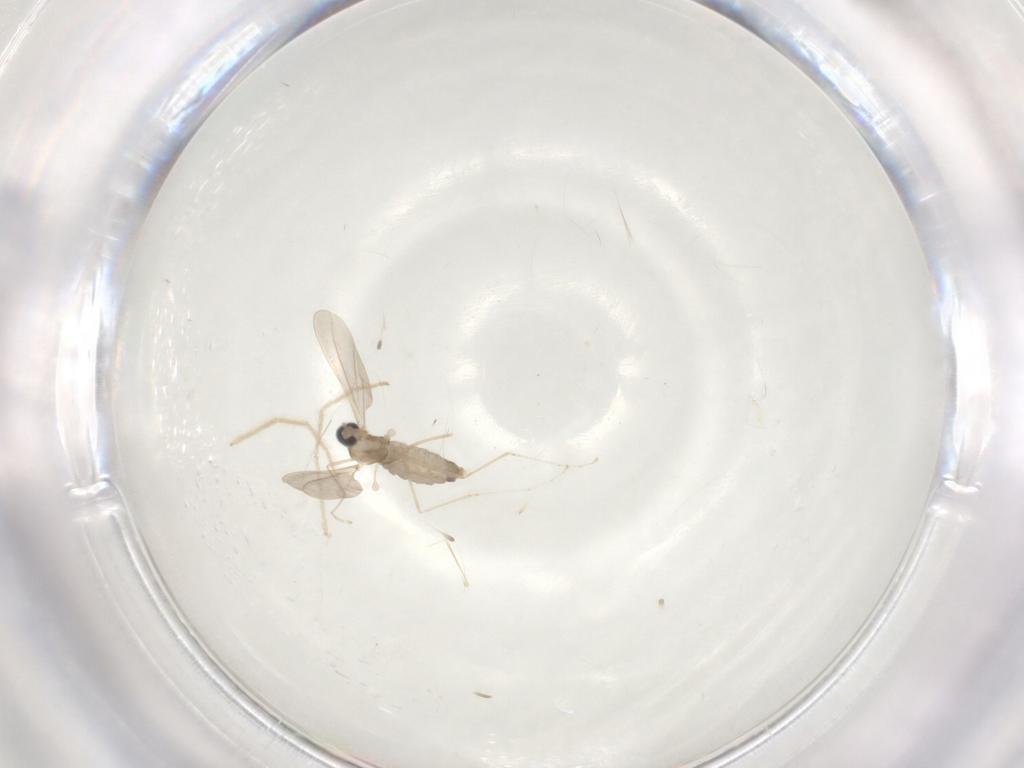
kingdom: Animalia
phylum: Arthropoda
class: Insecta
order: Diptera
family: Cecidomyiidae
